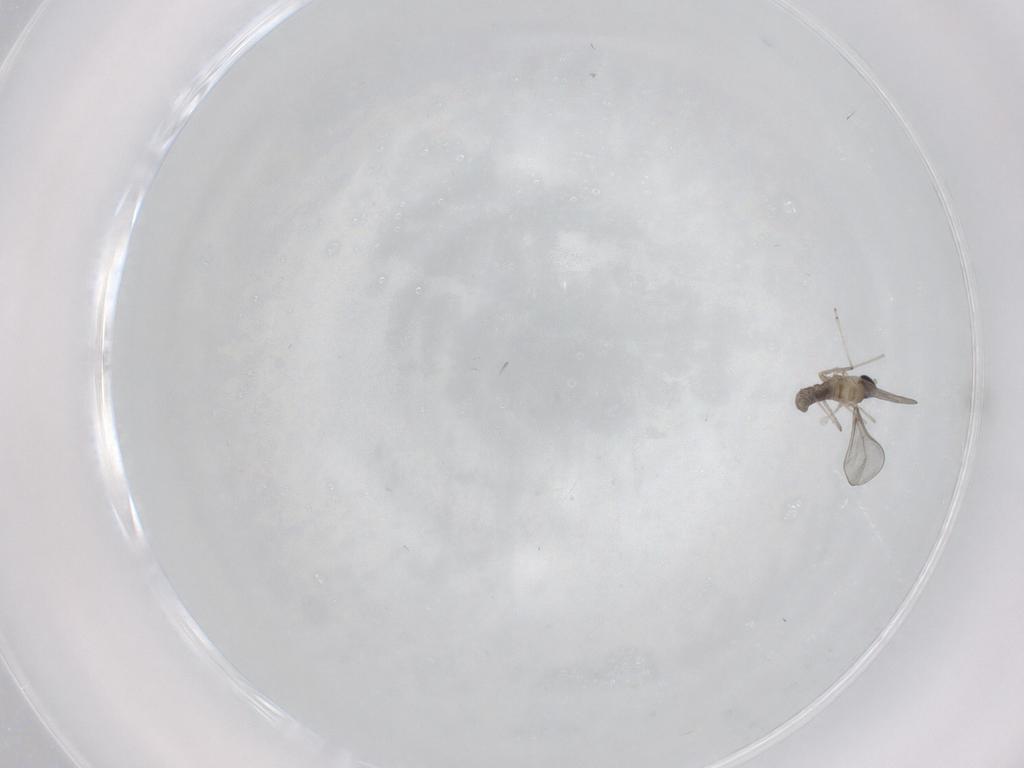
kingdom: Animalia
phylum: Arthropoda
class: Insecta
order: Diptera
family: Cecidomyiidae
